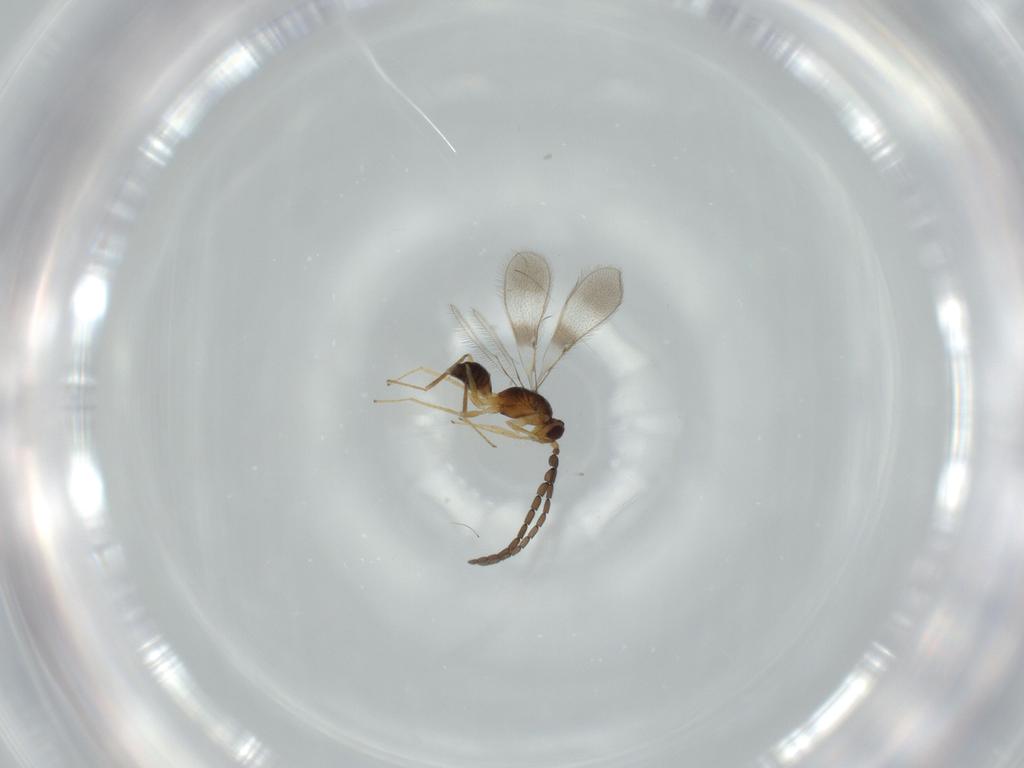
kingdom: Animalia
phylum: Arthropoda
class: Insecta
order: Hymenoptera
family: Mymaridae
